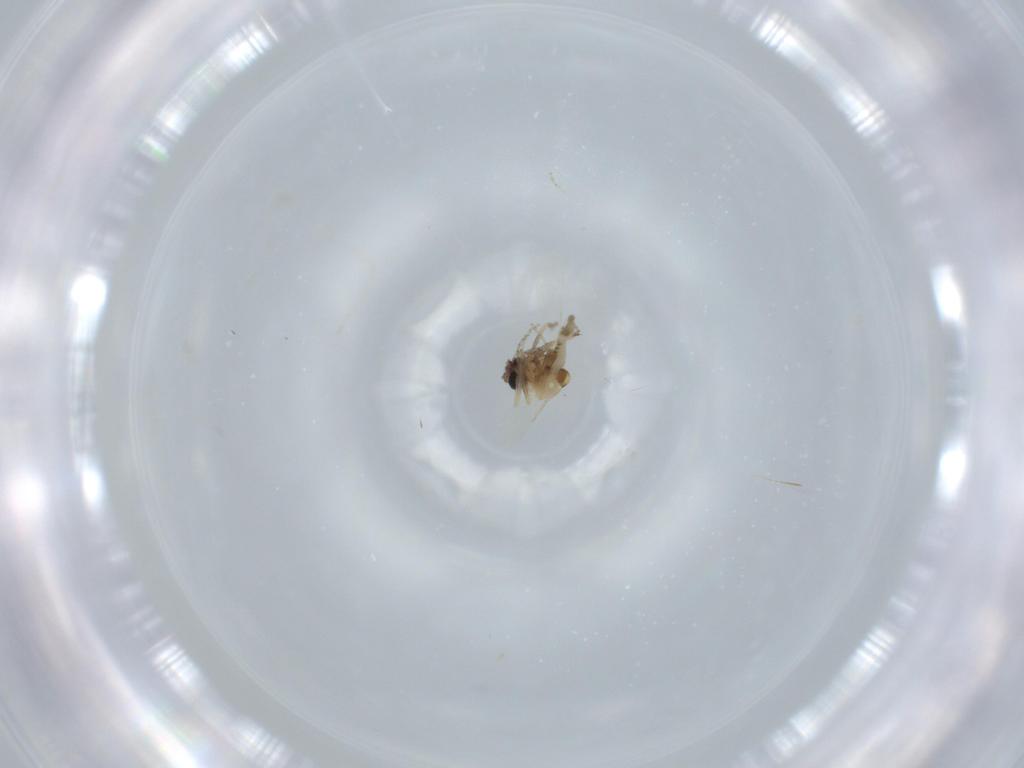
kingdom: Animalia
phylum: Arthropoda
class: Insecta
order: Diptera
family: Ceratopogonidae
